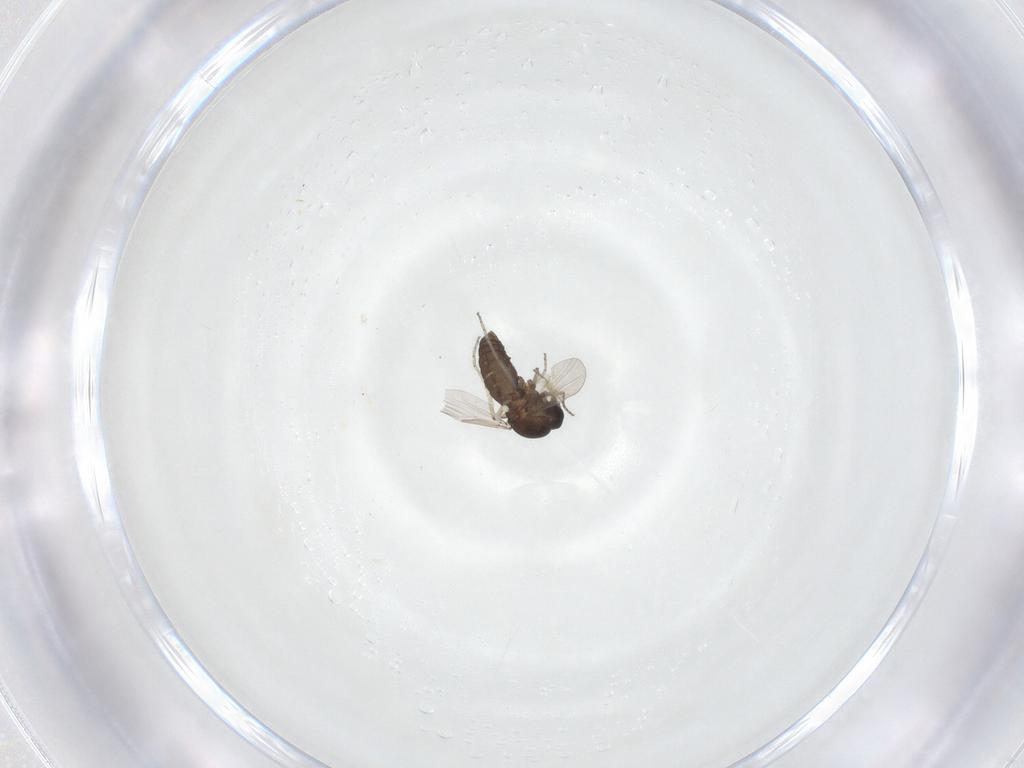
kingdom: Animalia
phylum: Arthropoda
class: Insecta
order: Diptera
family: Ceratopogonidae
